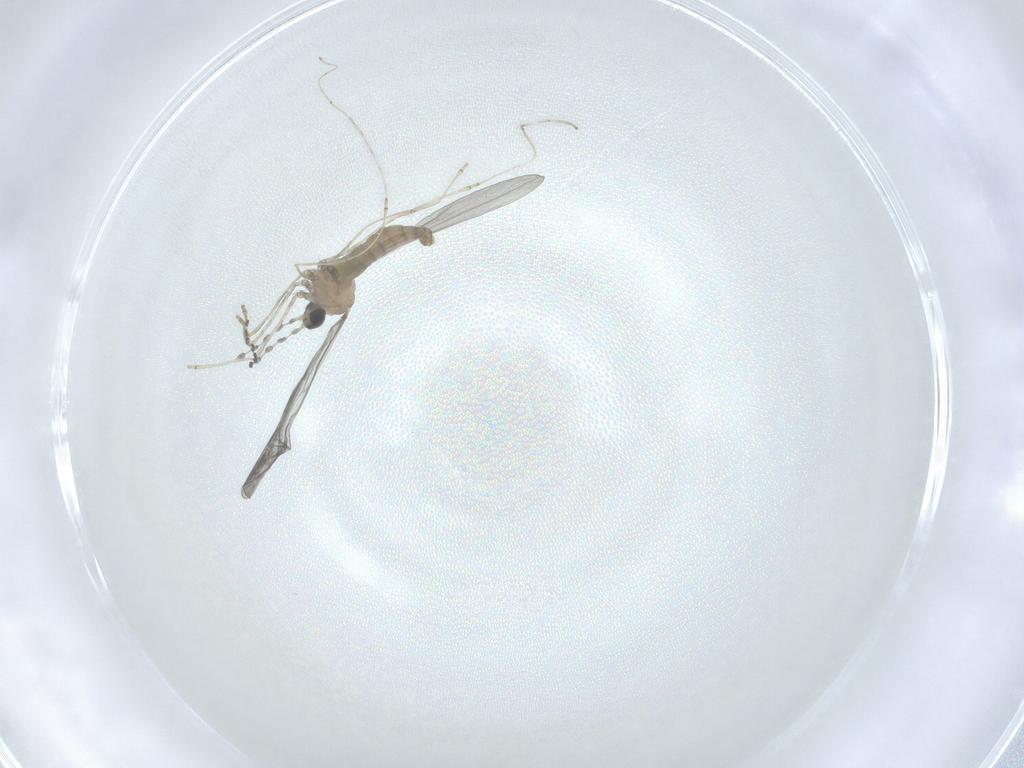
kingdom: Animalia
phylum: Arthropoda
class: Insecta
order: Diptera
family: Cecidomyiidae
